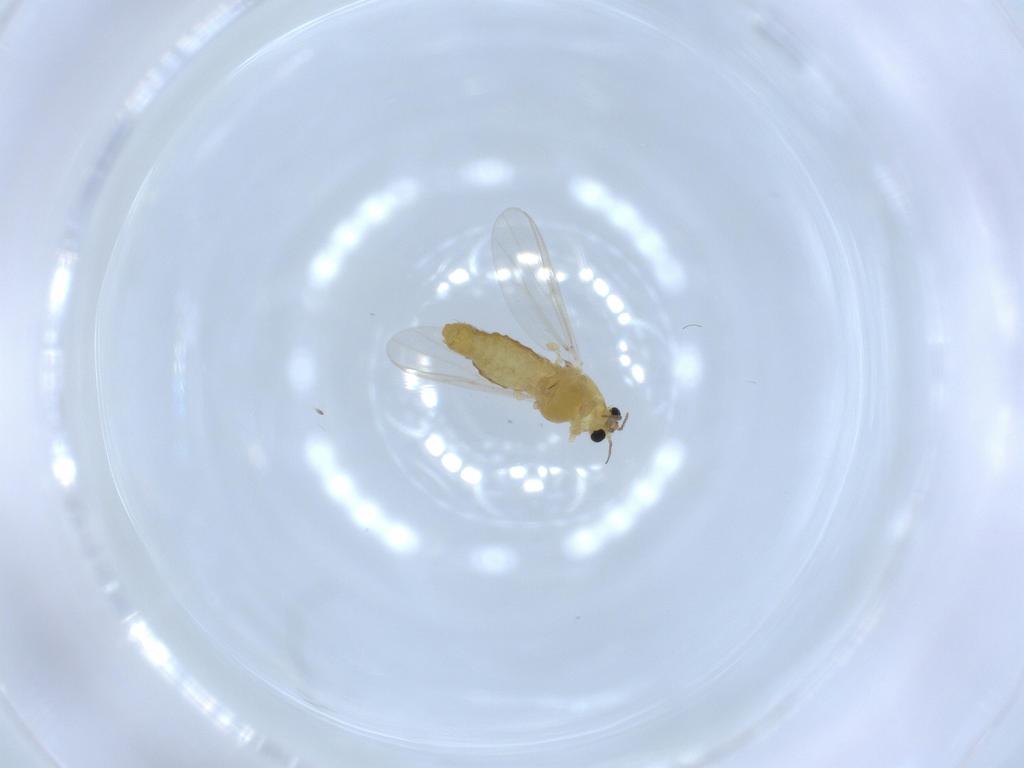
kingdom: Animalia
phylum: Arthropoda
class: Insecta
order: Diptera
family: Chironomidae
